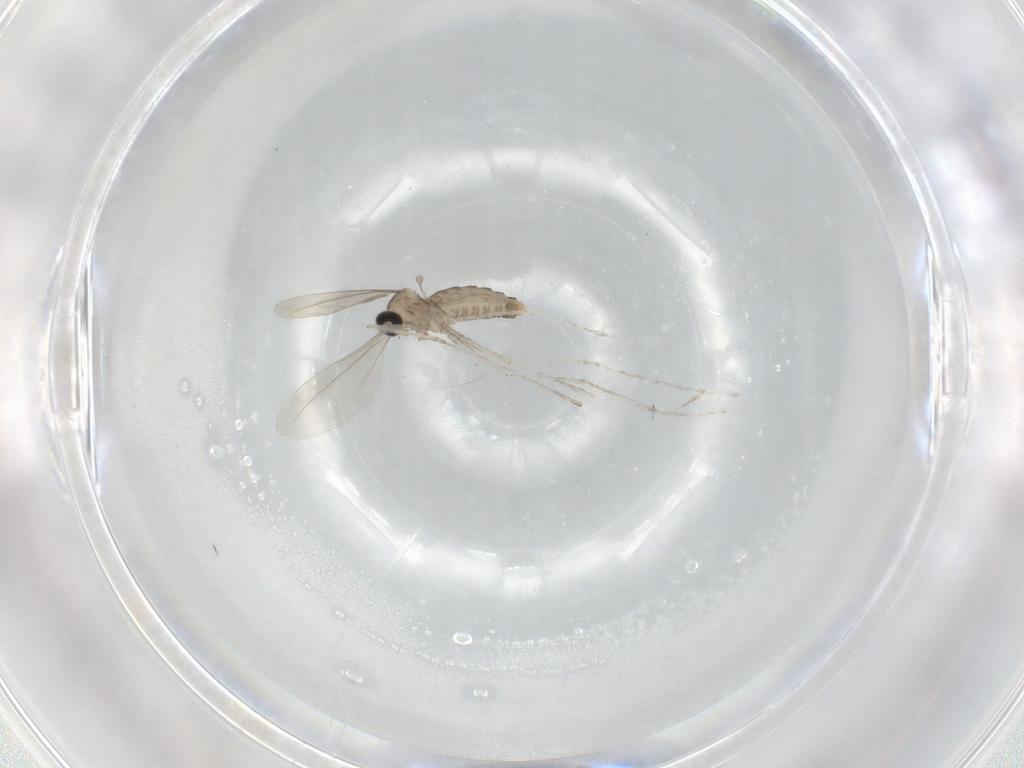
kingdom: Animalia
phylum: Arthropoda
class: Insecta
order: Diptera
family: Cecidomyiidae
